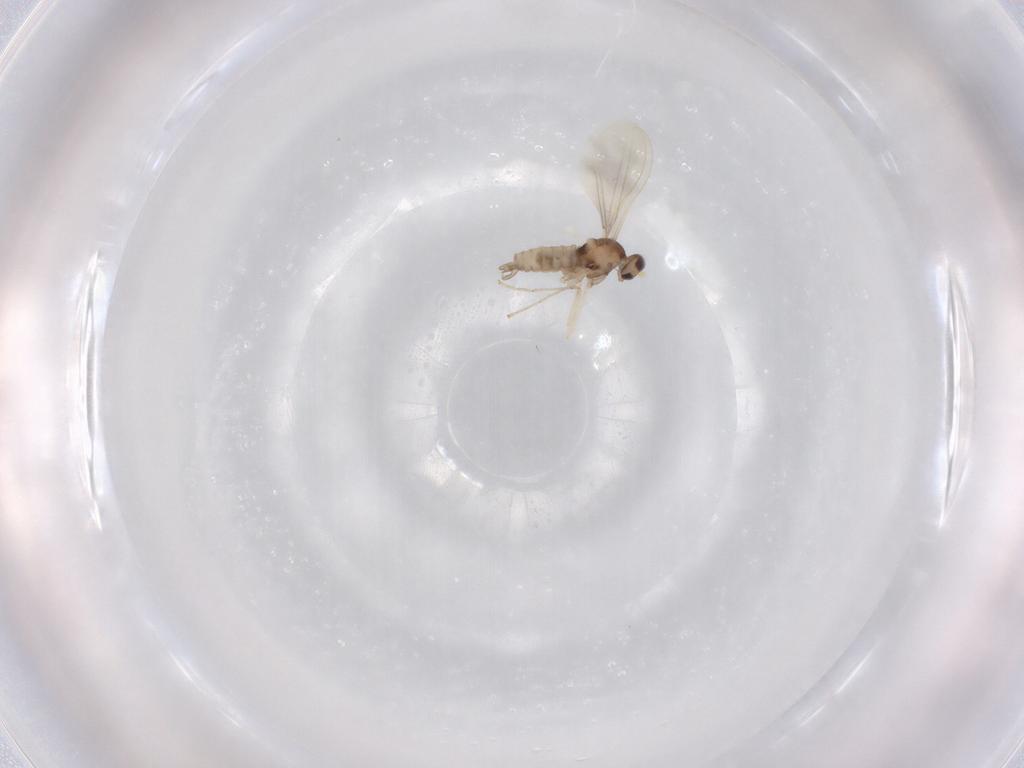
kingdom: Animalia
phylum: Arthropoda
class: Insecta
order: Diptera
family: Cecidomyiidae
